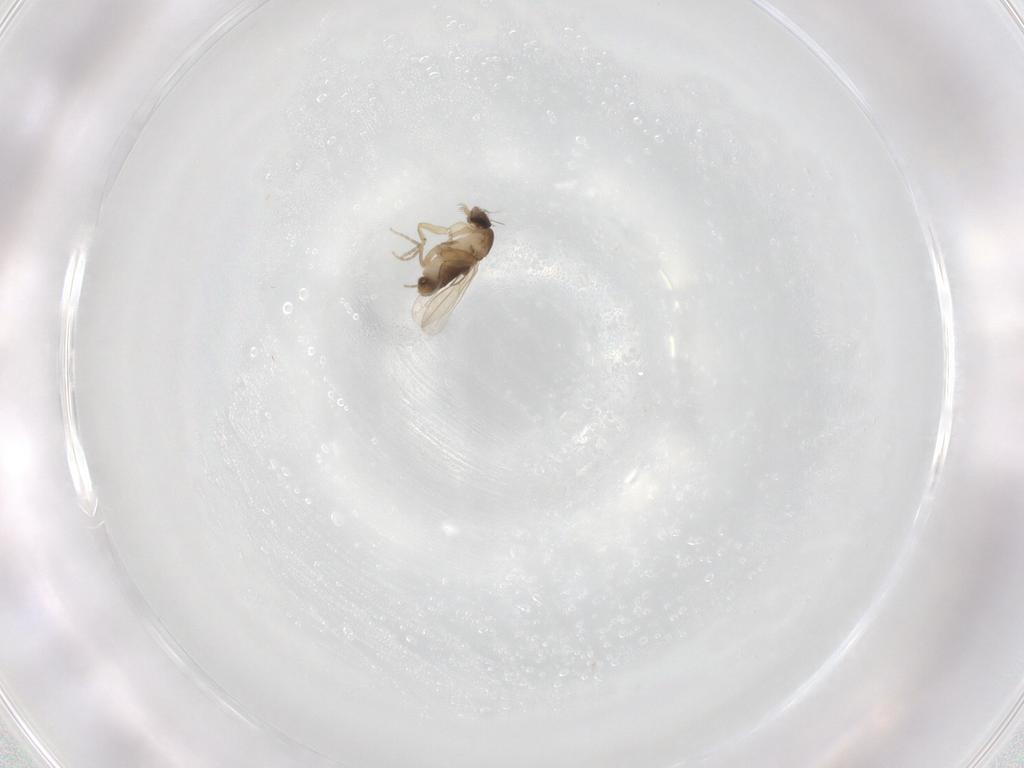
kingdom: Animalia
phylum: Arthropoda
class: Insecta
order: Diptera
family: Phoridae
